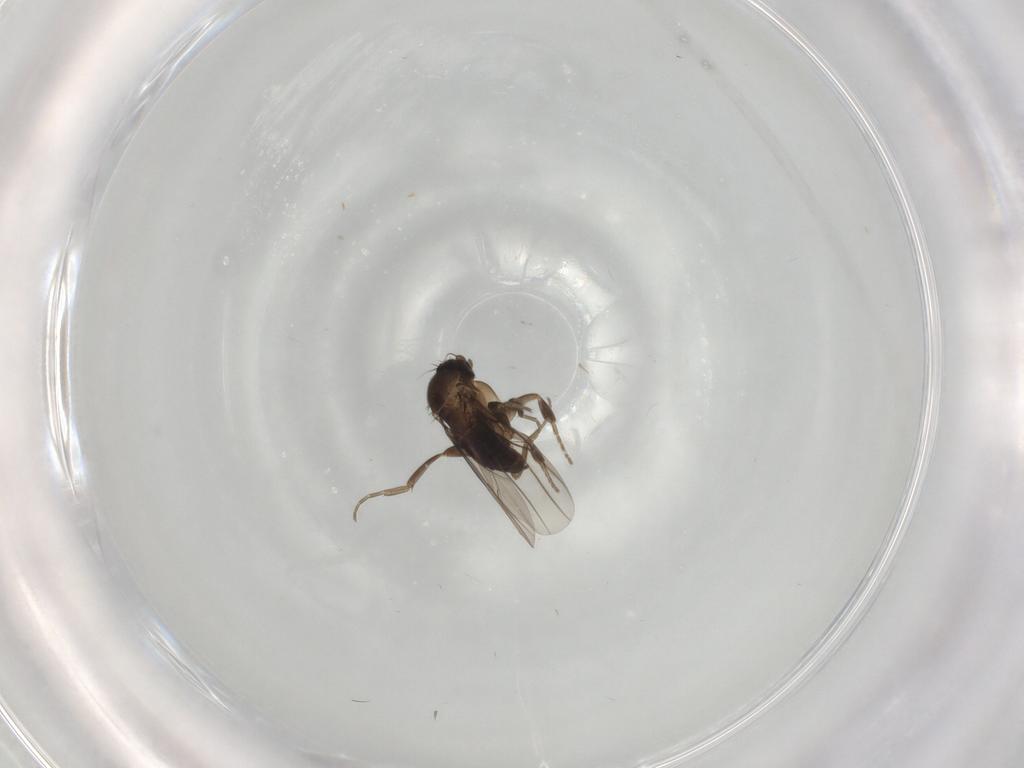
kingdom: Animalia
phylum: Arthropoda
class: Insecta
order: Diptera
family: Phoridae
